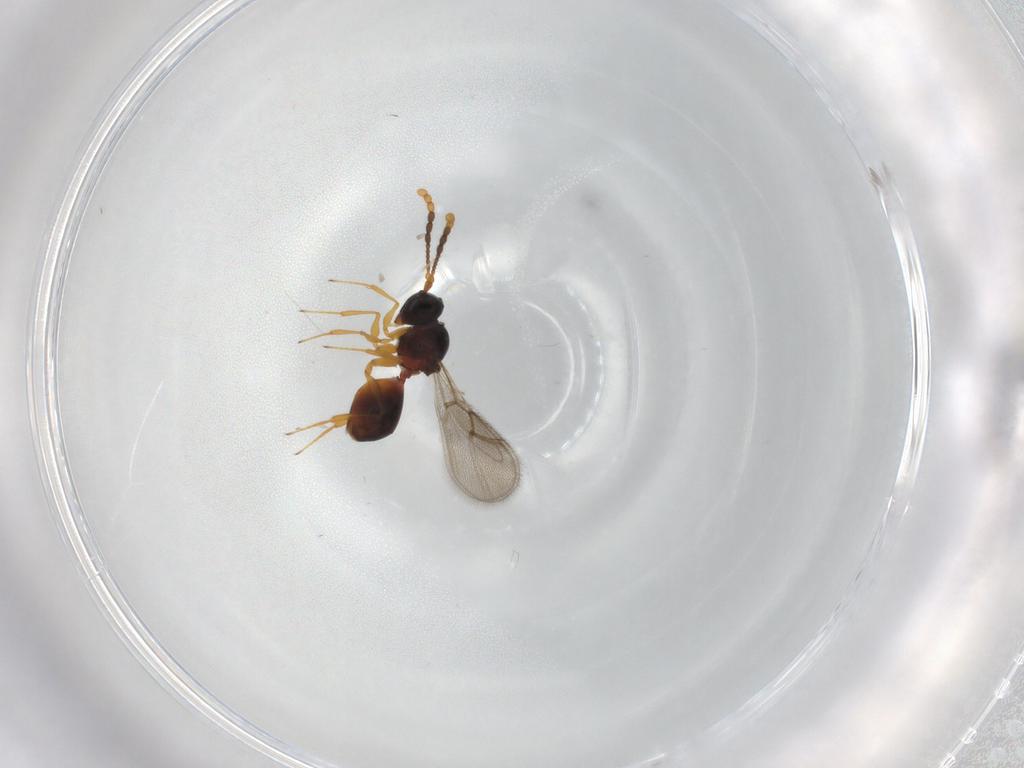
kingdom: Animalia
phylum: Arthropoda
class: Insecta
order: Hymenoptera
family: Figitidae
